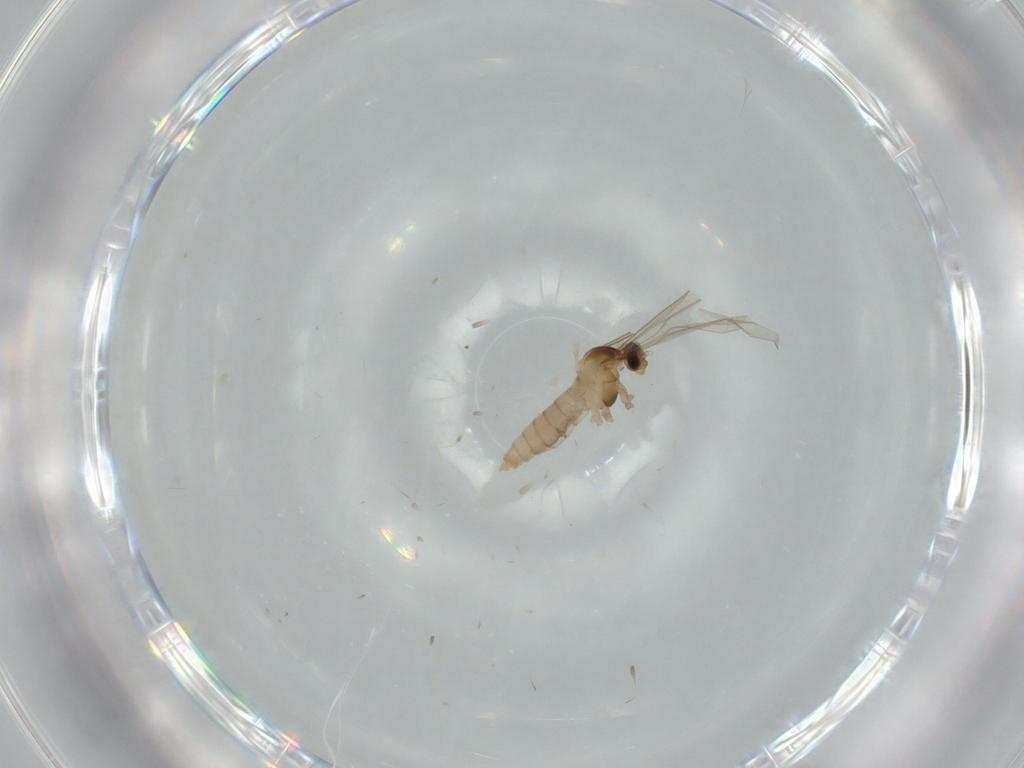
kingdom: Animalia
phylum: Arthropoda
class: Insecta
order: Diptera
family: Cecidomyiidae
